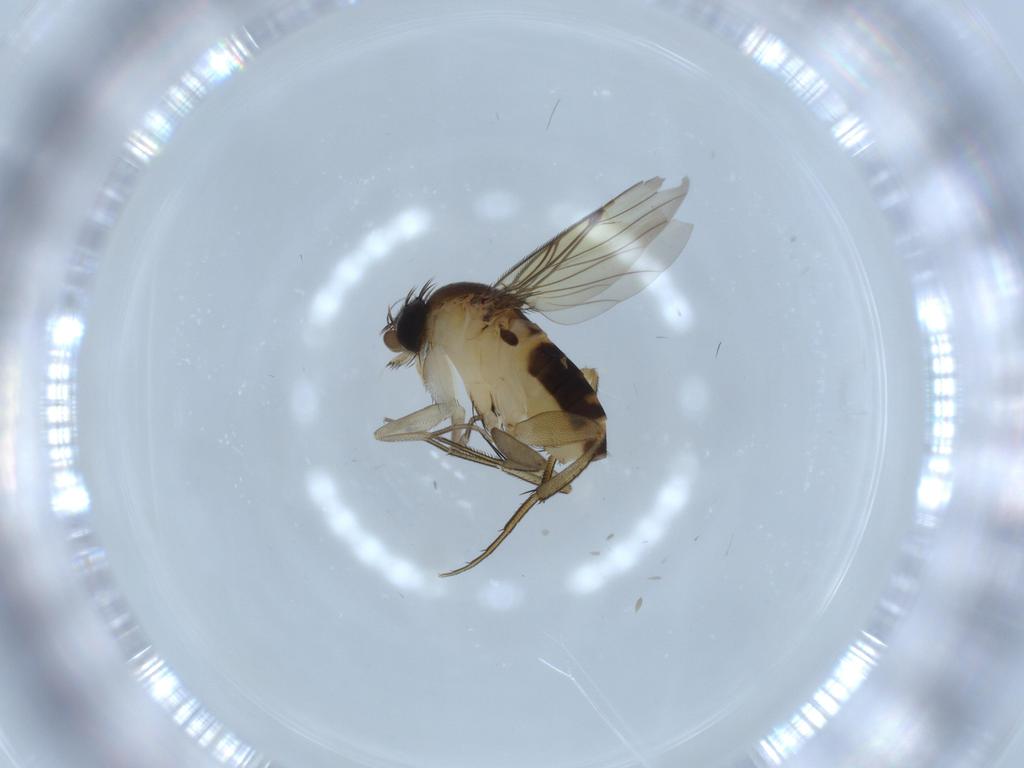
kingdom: Animalia
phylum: Arthropoda
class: Insecta
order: Diptera
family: Phoridae
